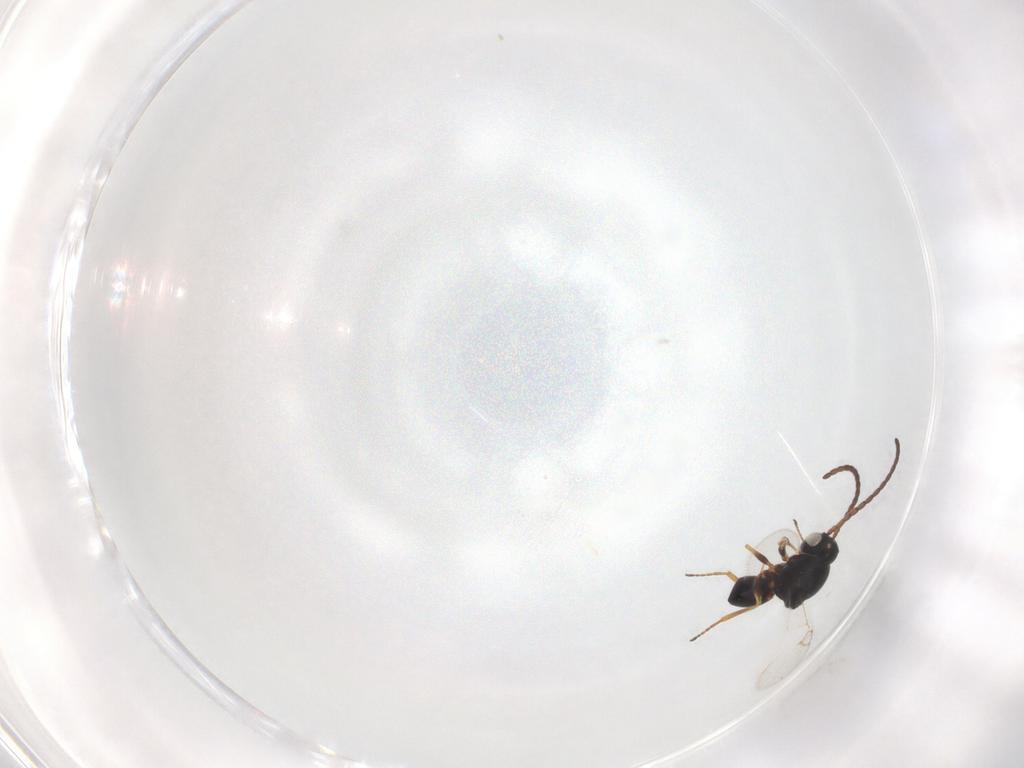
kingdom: Animalia
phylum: Arthropoda
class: Insecta
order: Hymenoptera
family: Figitidae
